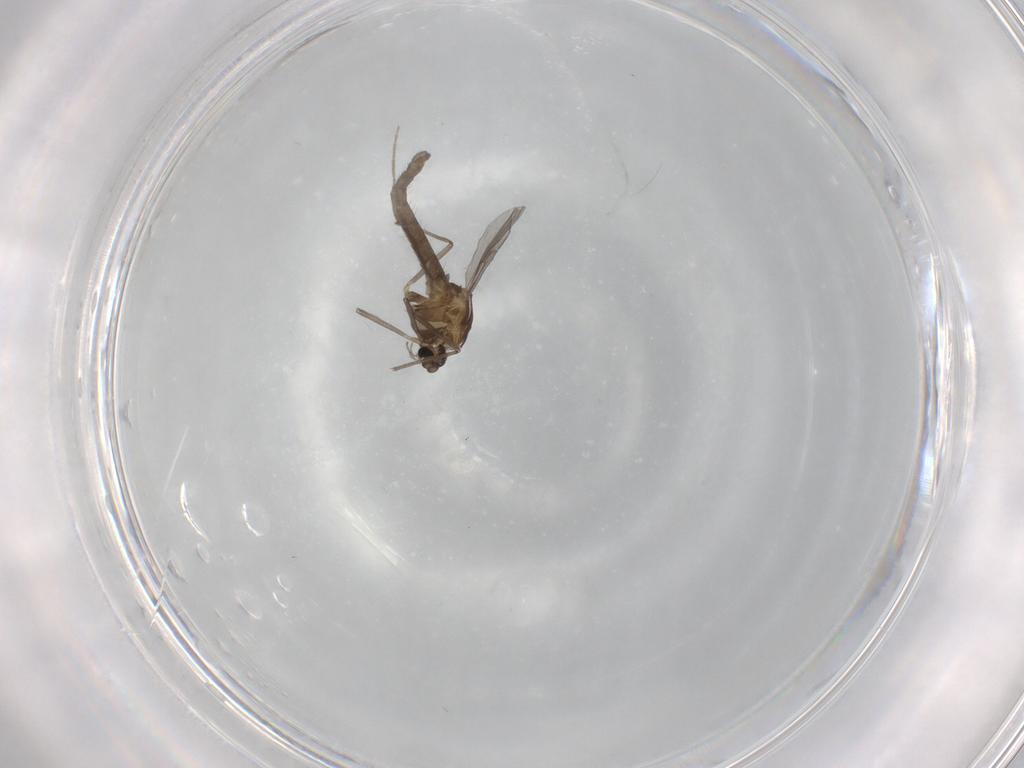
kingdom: Animalia
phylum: Arthropoda
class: Insecta
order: Diptera
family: Chironomidae
